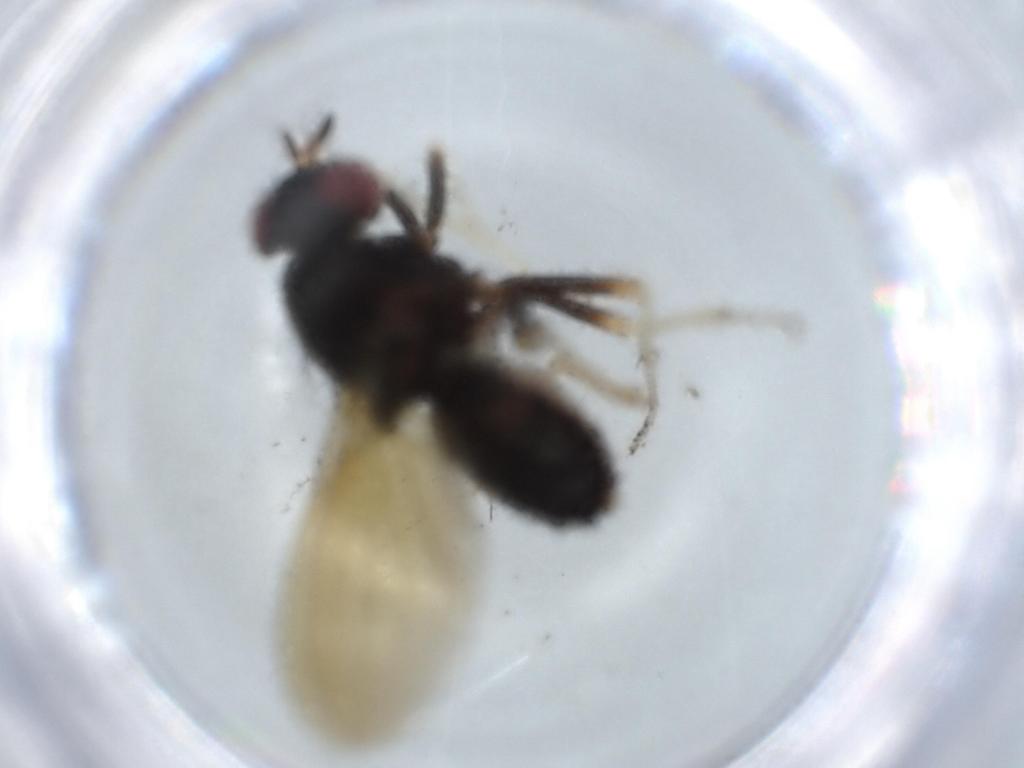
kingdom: Animalia
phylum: Arthropoda
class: Insecta
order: Diptera
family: Lauxaniidae
